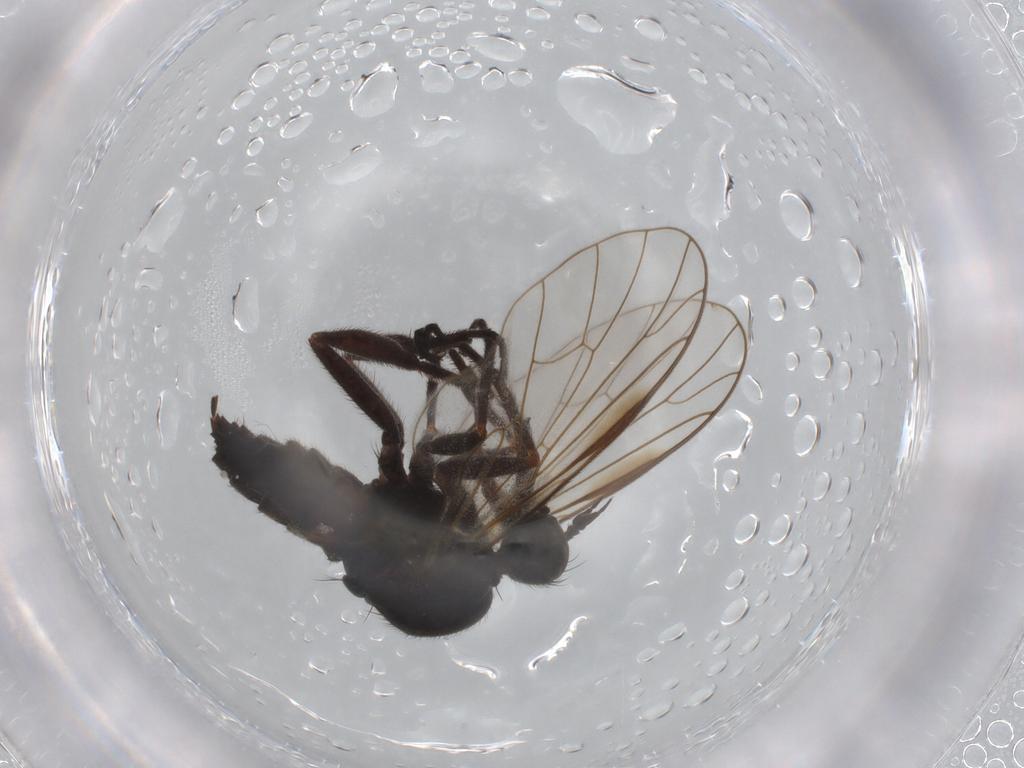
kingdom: Animalia
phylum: Arthropoda
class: Insecta
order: Diptera
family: Empididae
